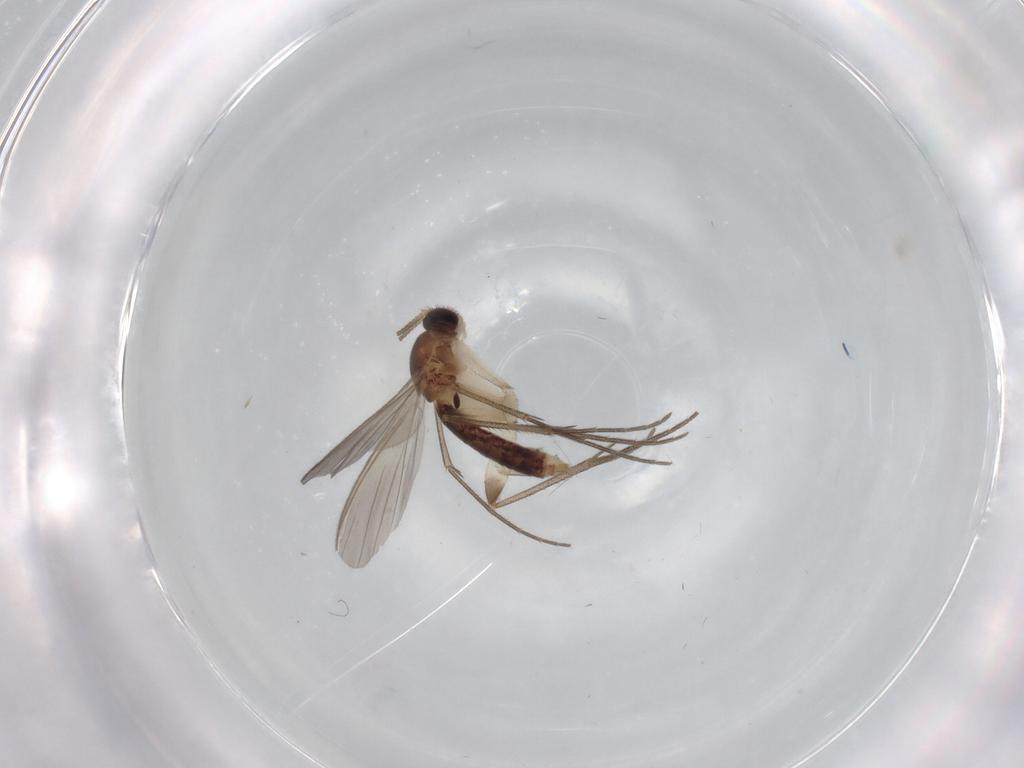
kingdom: Animalia
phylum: Arthropoda
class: Insecta
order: Diptera
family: Mycetophilidae
